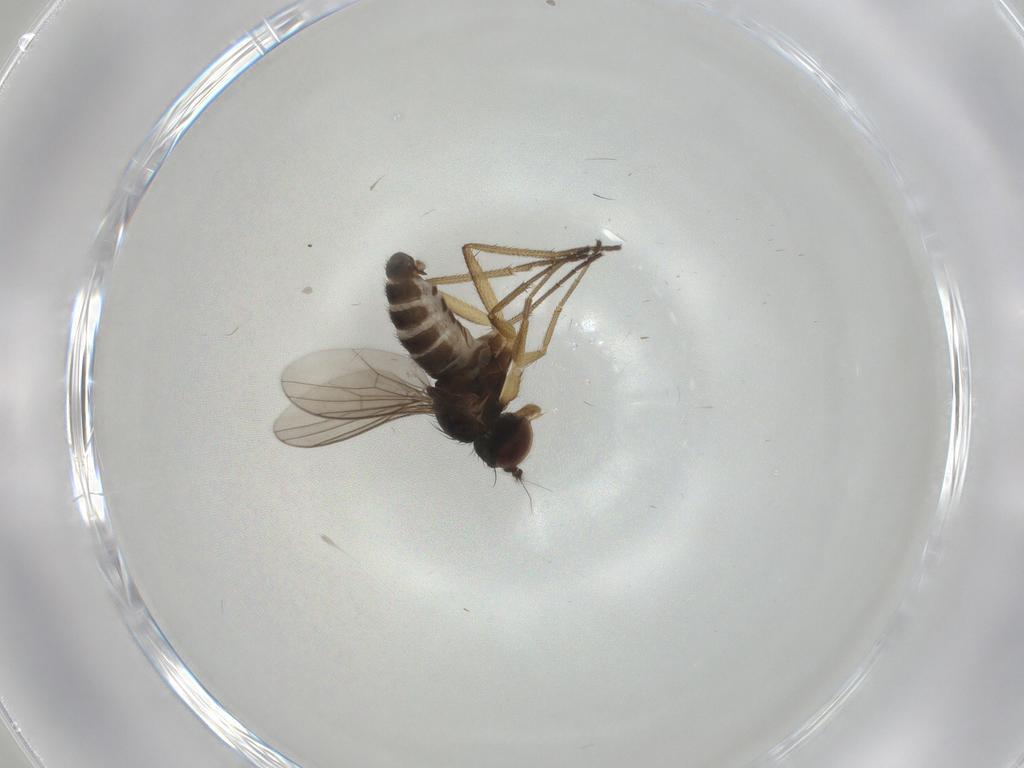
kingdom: Animalia
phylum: Arthropoda
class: Insecta
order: Diptera
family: Dolichopodidae
